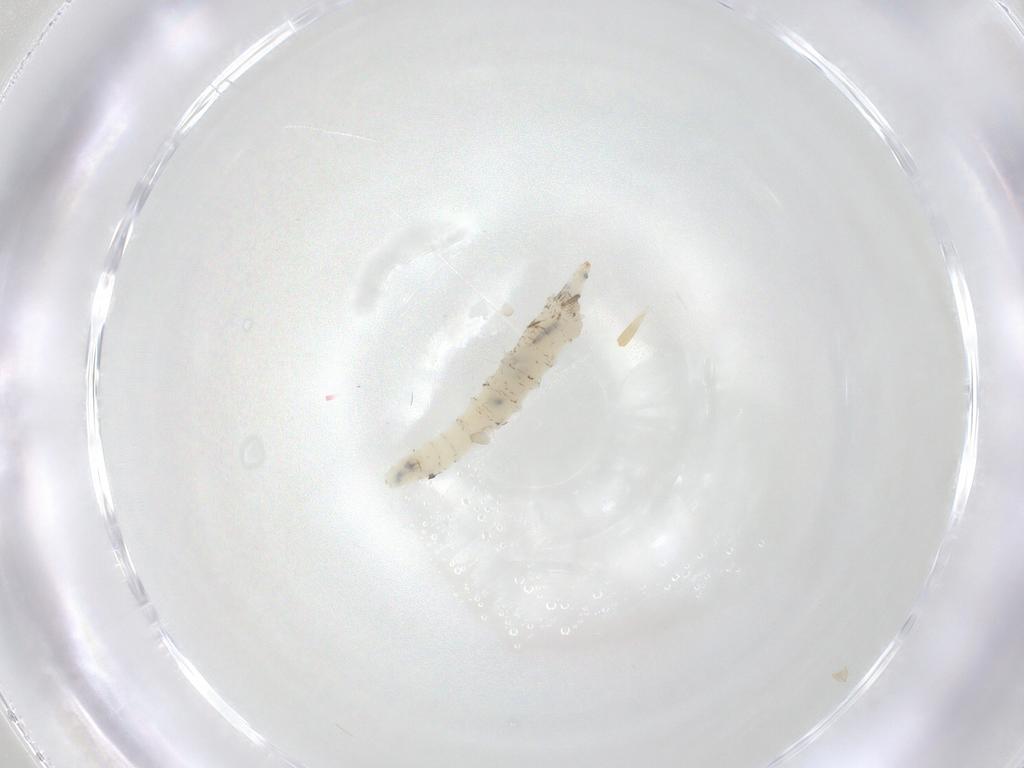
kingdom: Animalia
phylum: Arthropoda
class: Insecta
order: Diptera
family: Limoniidae
